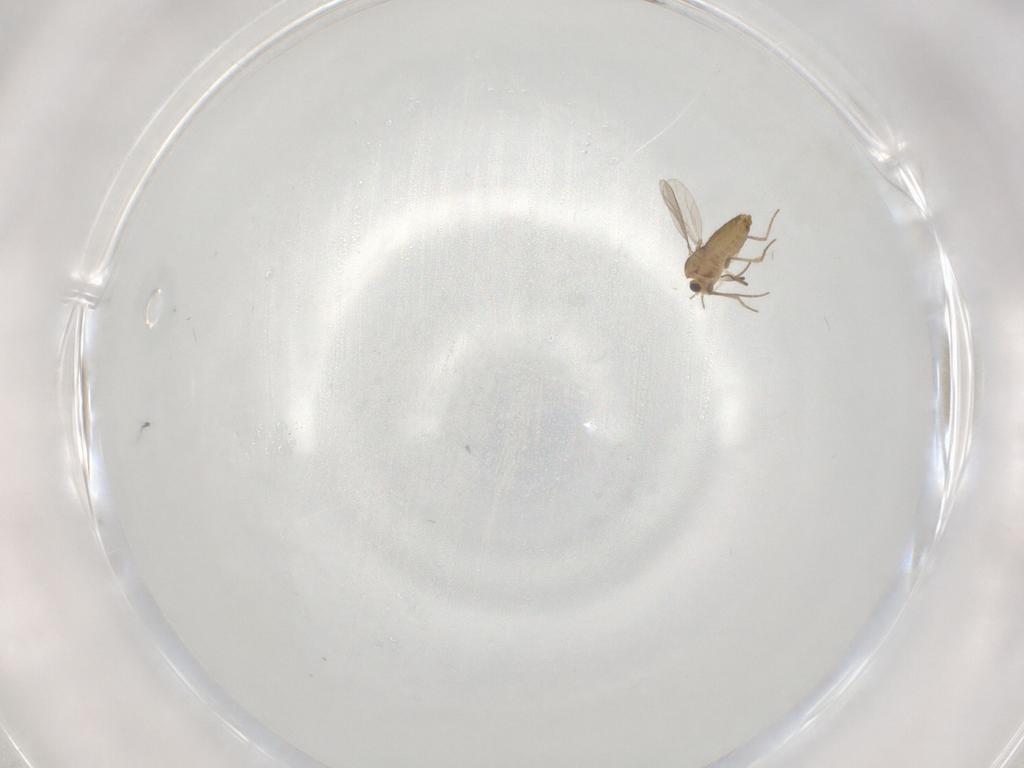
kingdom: Animalia
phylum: Arthropoda
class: Insecta
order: Diptera
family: Chironomidae
